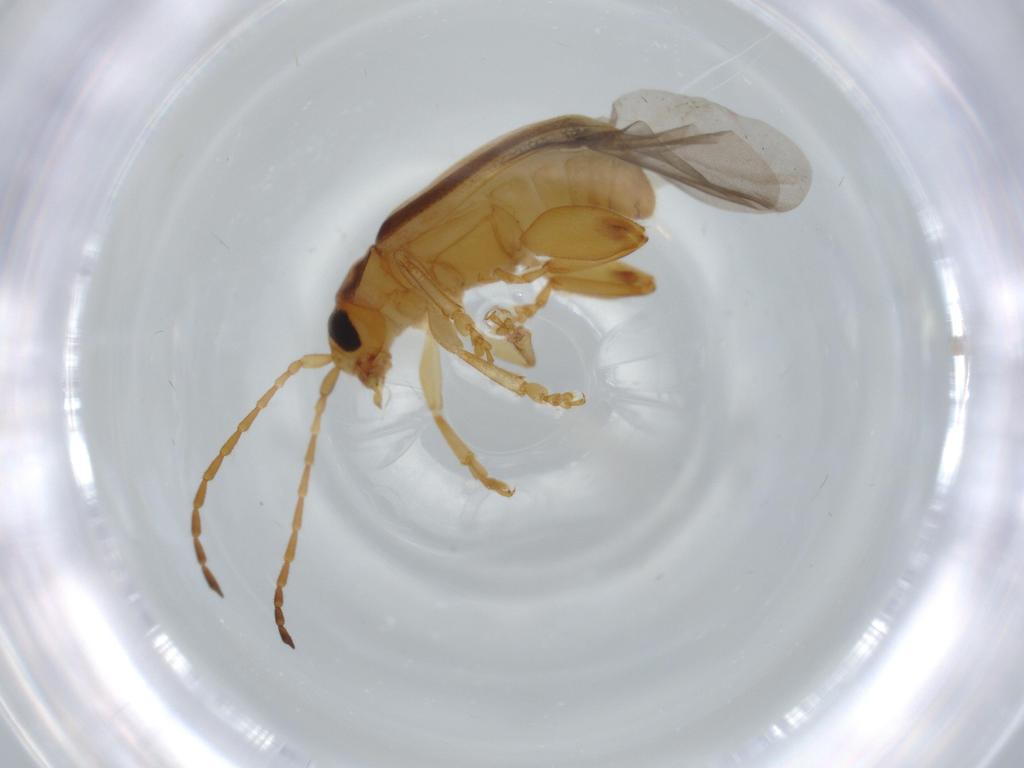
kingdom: Animalia
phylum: Arthropoda
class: Insecta
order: Coleoptera
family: Chrysomelidae
